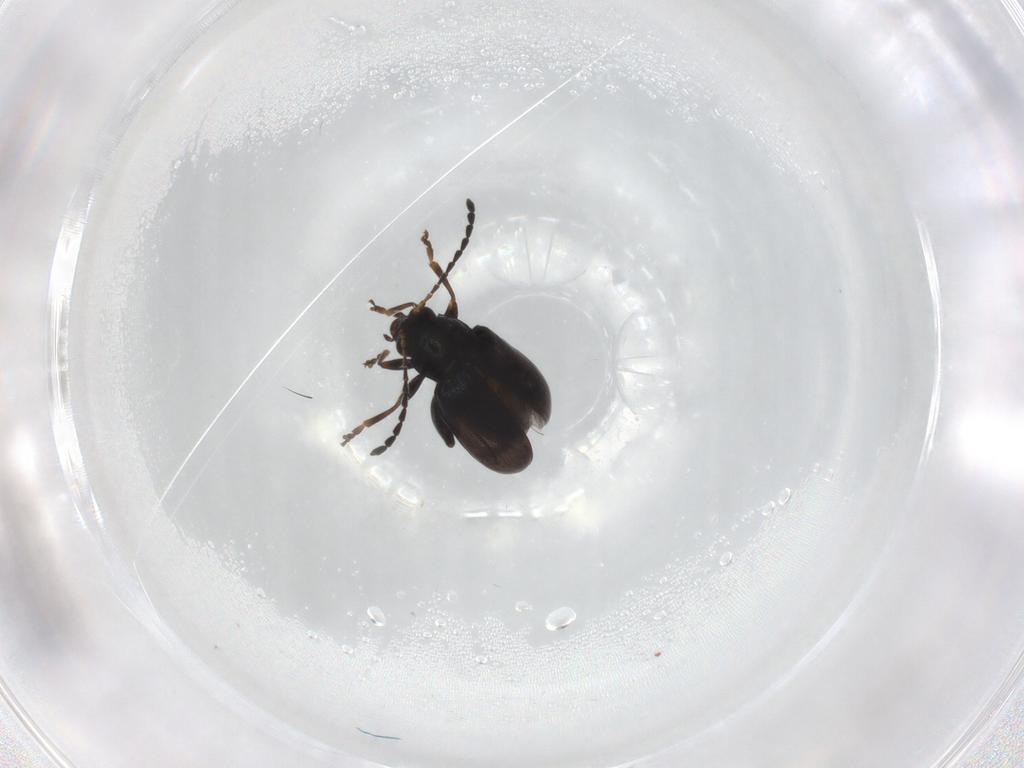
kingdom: Animalia
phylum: Arthropoda
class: Insecta
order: Coleoptera
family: Chrysomelidae
